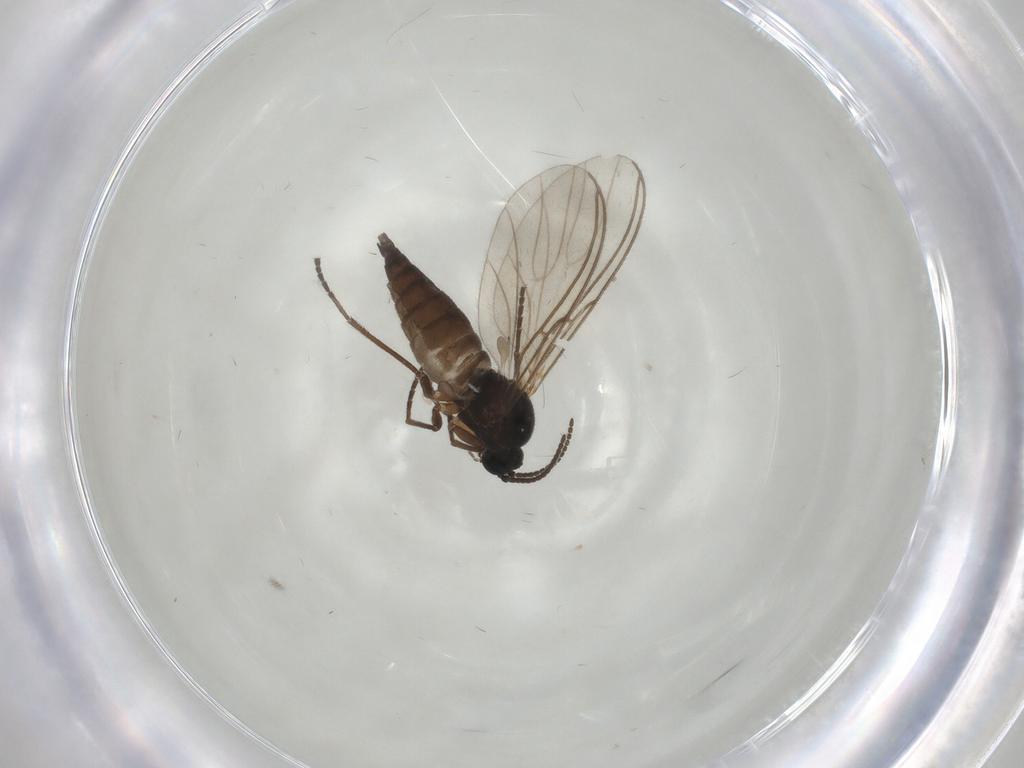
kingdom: Animalia
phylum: Arthropoda
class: Insecta
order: Diptera
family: Sciaridae
